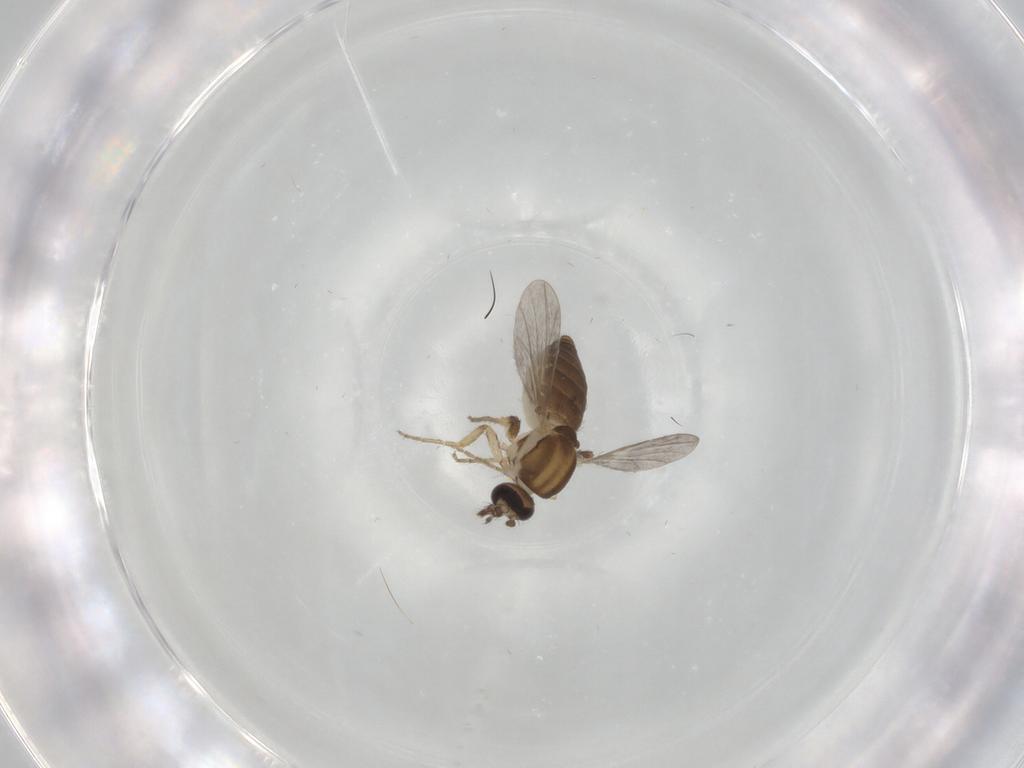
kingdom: Animalia
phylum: Arthropoda
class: Insecta
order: Diptera
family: Ceratopogonidae
